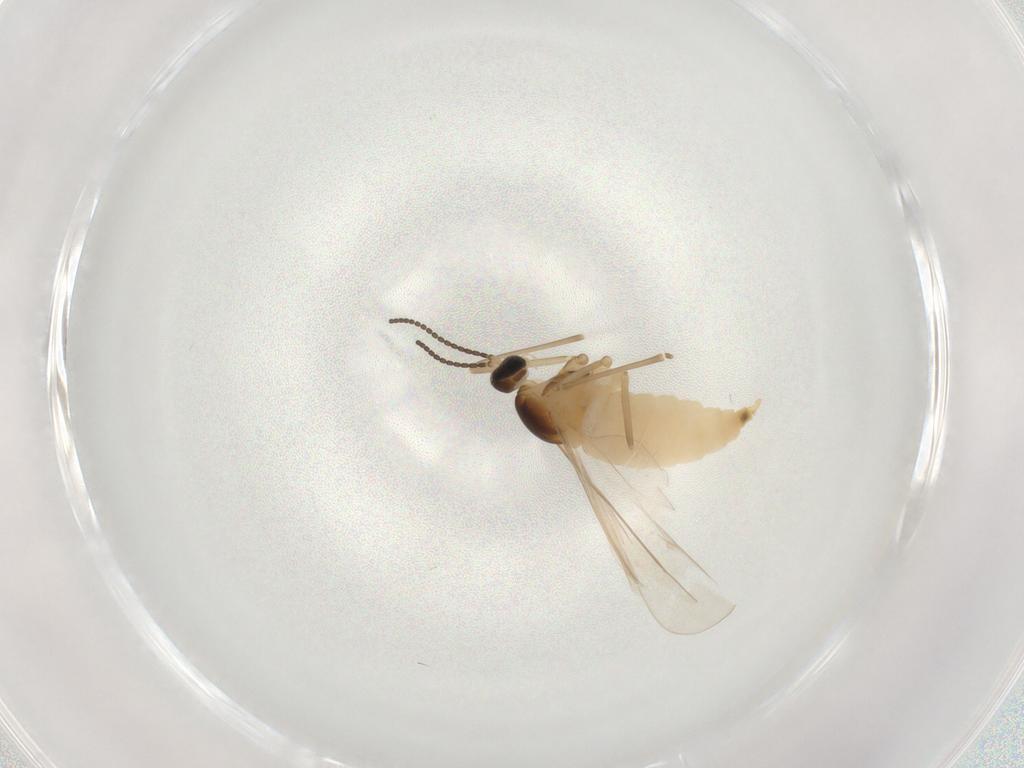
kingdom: Animalia
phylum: Arthropoda
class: Insecta
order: Diptera
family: Cecidomyiidae
